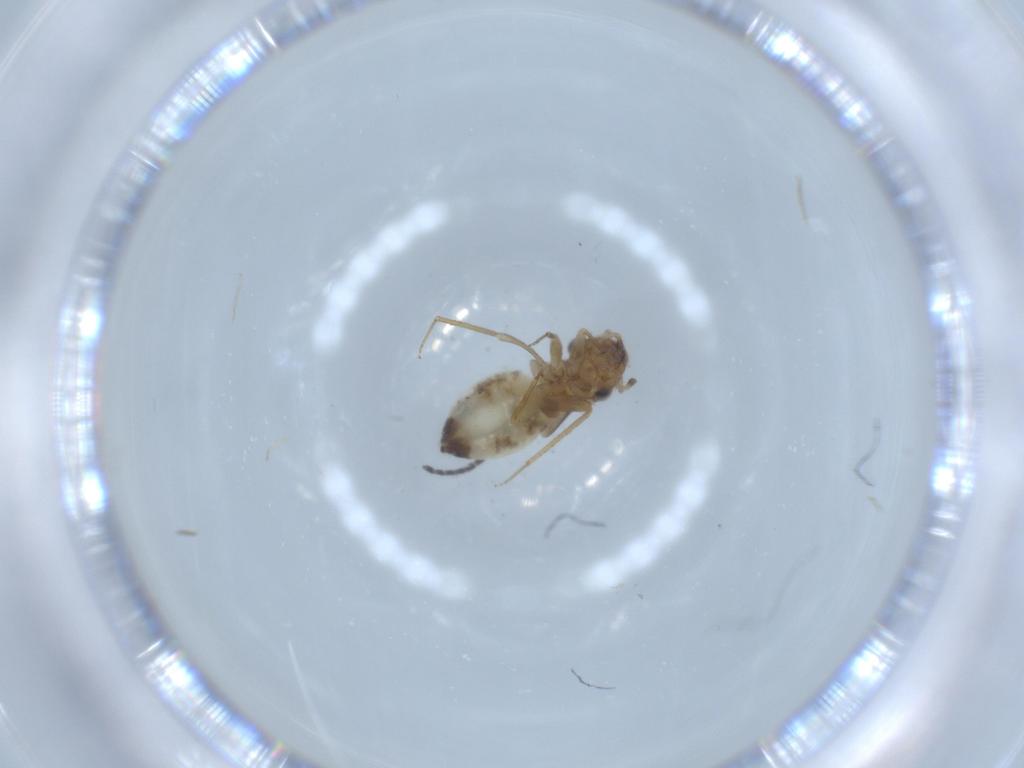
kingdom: Animalia
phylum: Arthropoda
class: Insecta
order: Psocodea
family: Lepidopsocidae
